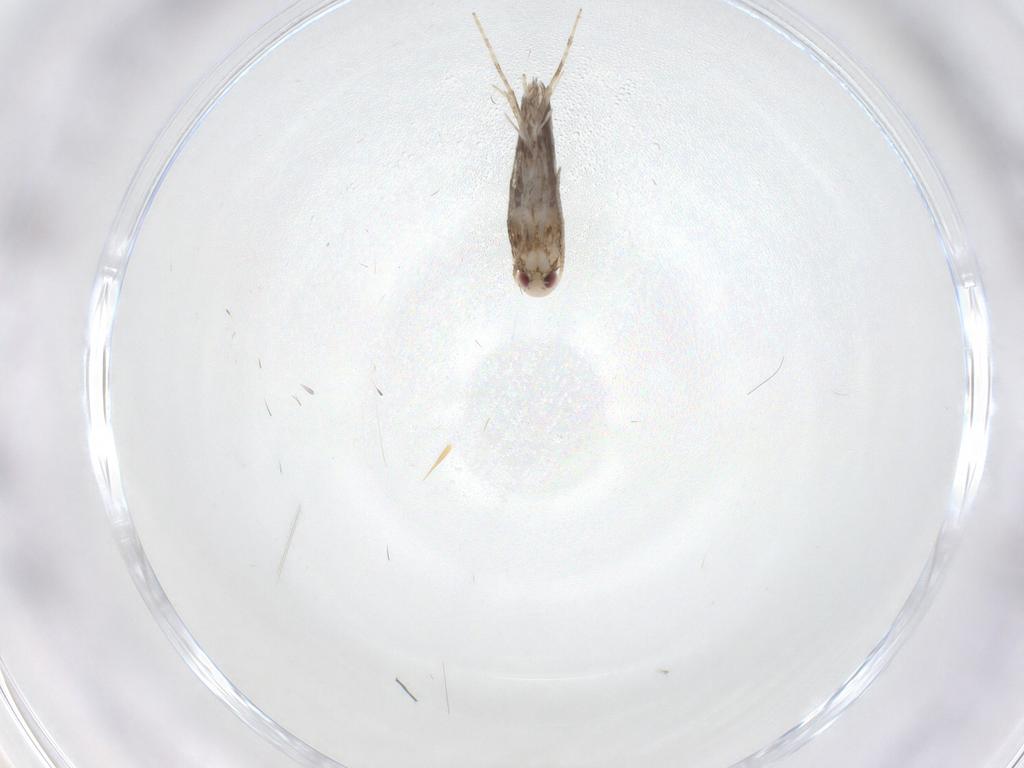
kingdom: Animalia
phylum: Arthropoda
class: Insecta
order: Lepidoptera
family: Gracillariidae
